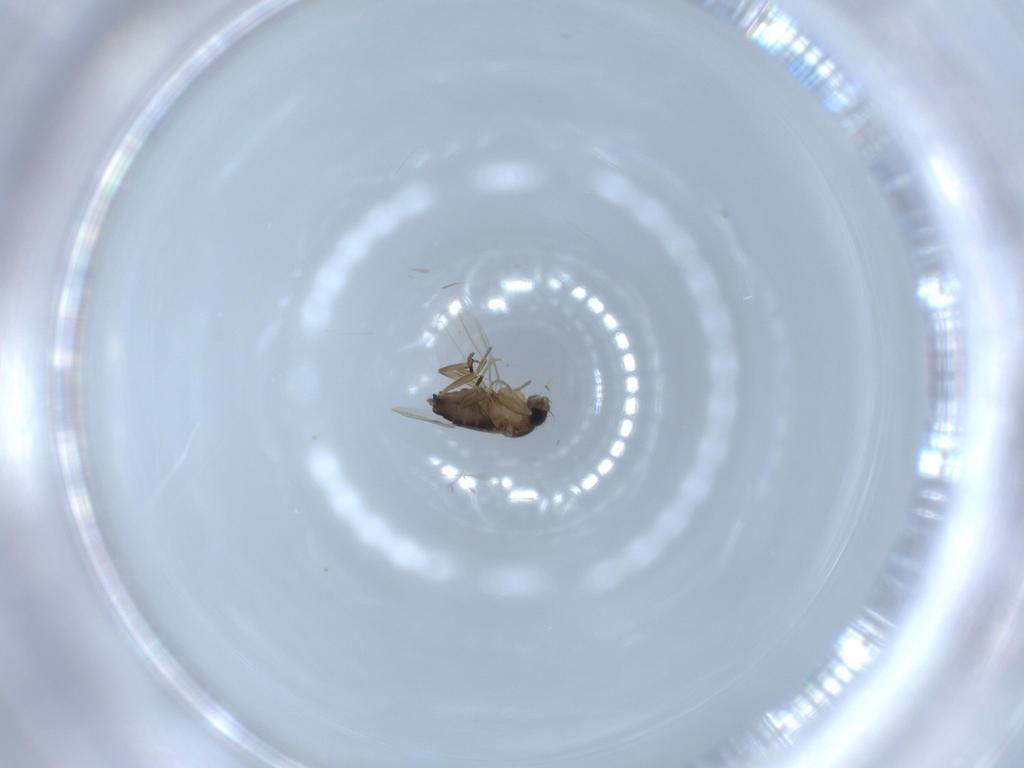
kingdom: Animalia
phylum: Arthropoda
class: Insecta
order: Diptera
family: Phoridae
